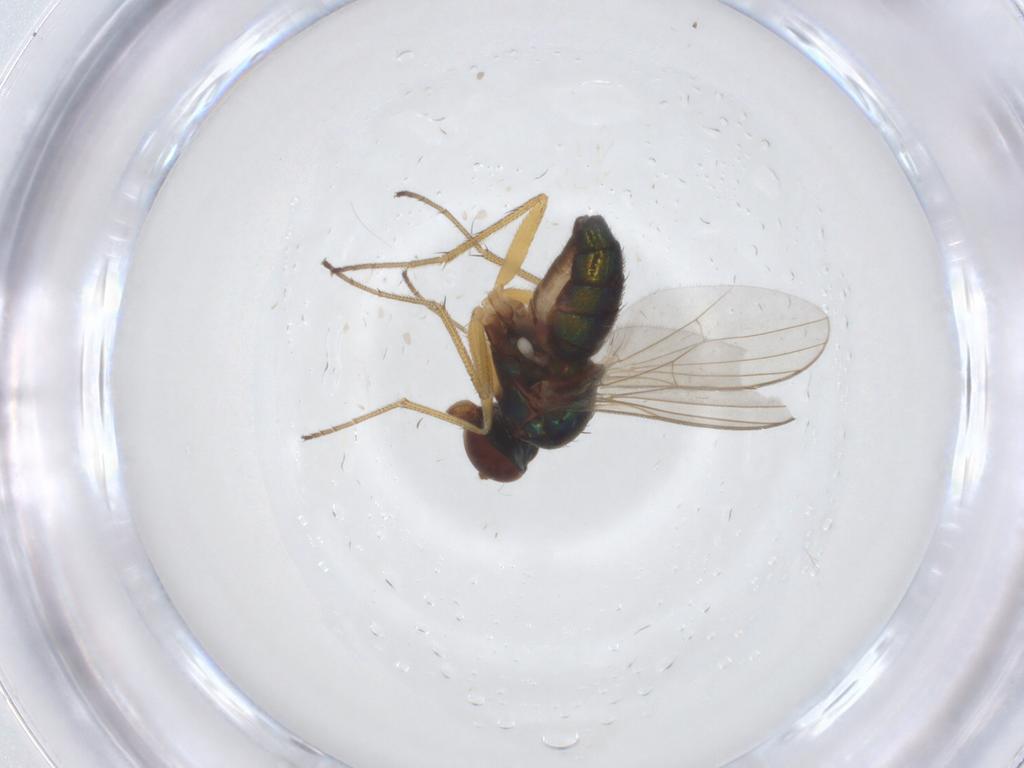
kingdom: Animalia
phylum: Arthropoda
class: Insecta
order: Diptera
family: Dolichopodidae
